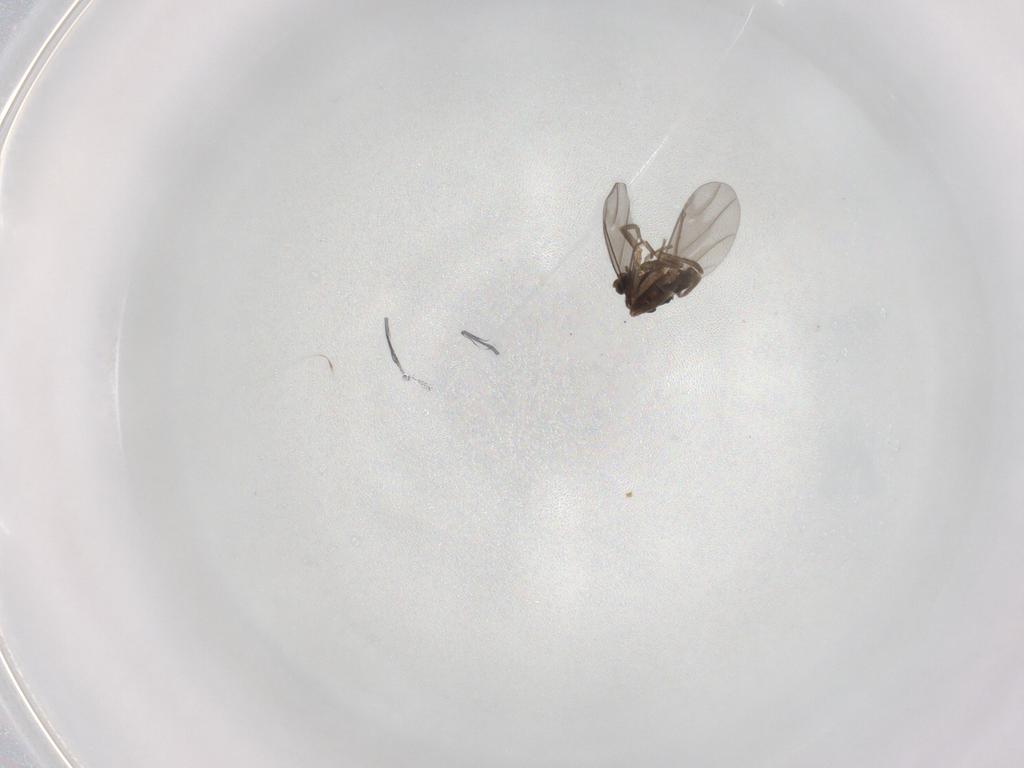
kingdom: Animalia
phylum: Arthropoda
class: Insecta
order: Diptera
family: Phoridae
